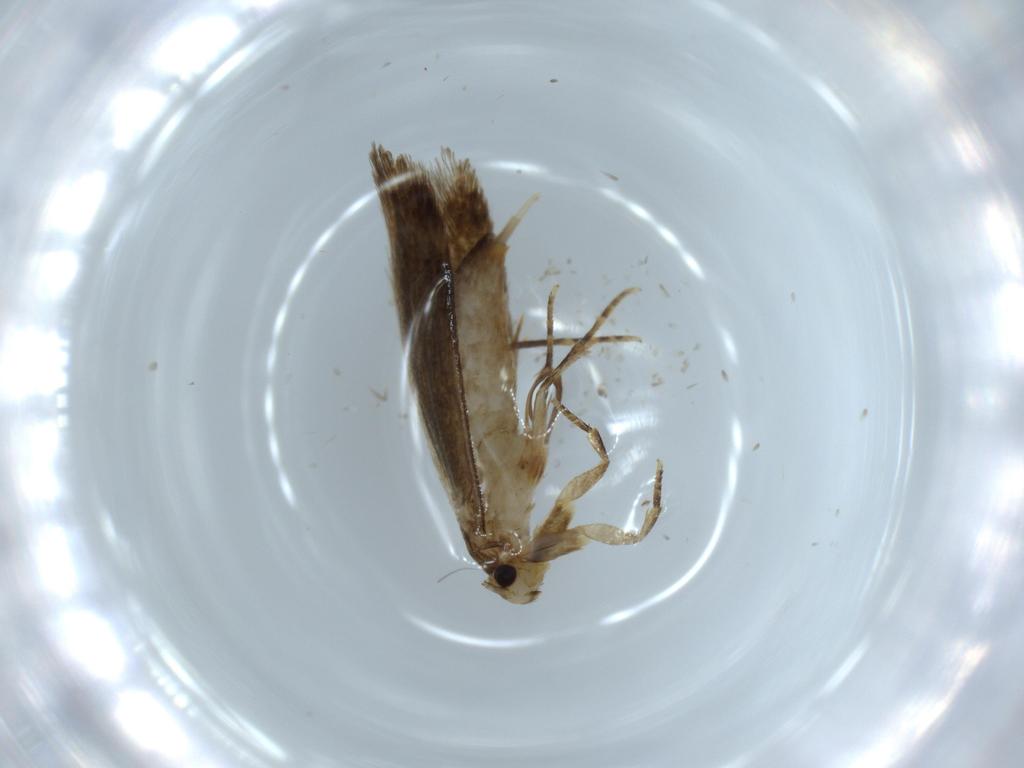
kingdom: Animalia
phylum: Arthropoda
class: Insecta
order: Lepidoptera
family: Tineidae
